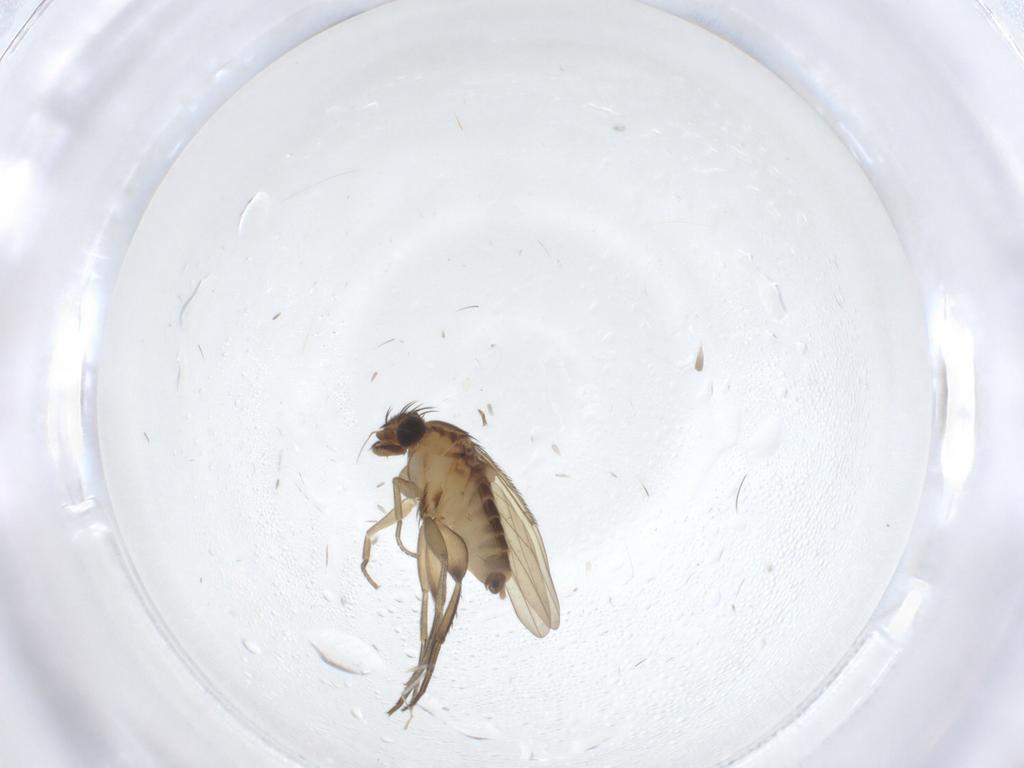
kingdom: Animalia
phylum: Arthropoda
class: Insecta
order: Diptera
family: Phoridae
